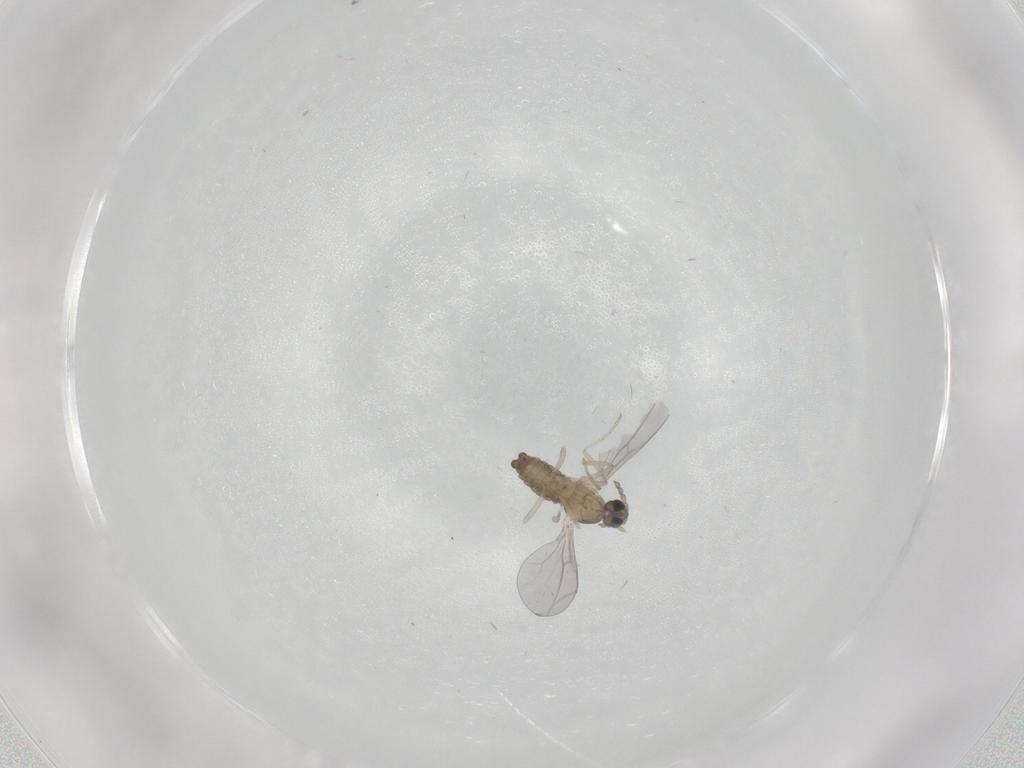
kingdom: Animalia
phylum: Arthropoda
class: Insecta
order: Diptera
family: Cecidomyiidae
